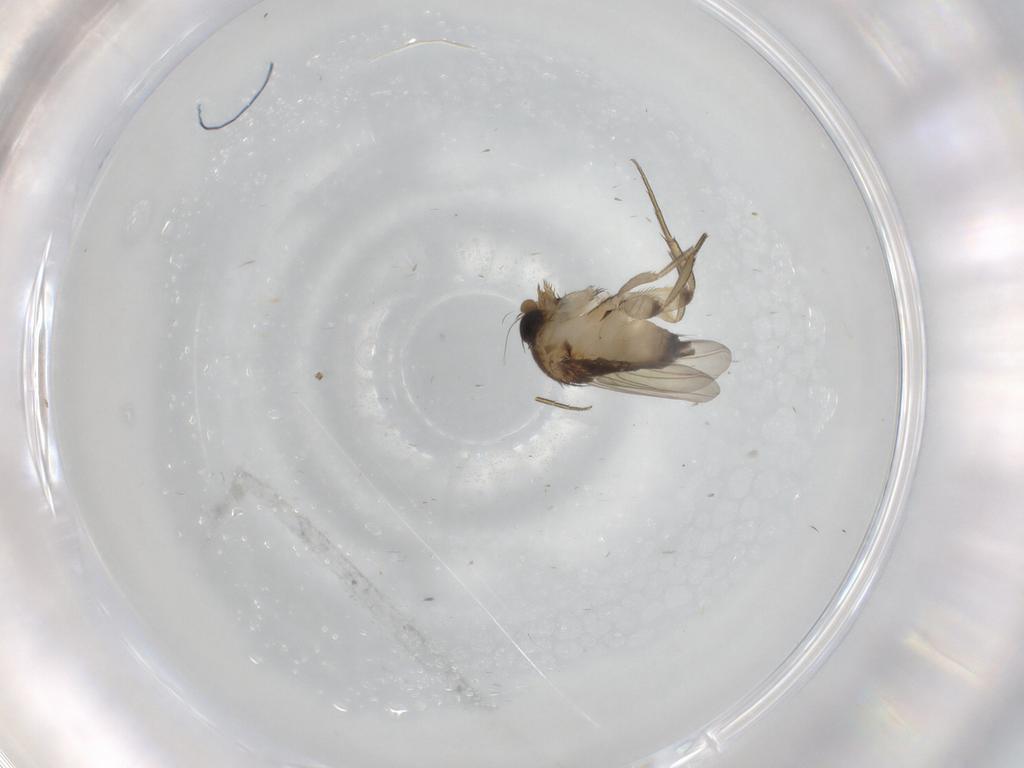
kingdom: Animalia
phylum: Arthropoda
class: Insecta
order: Diptera
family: Phoridae
